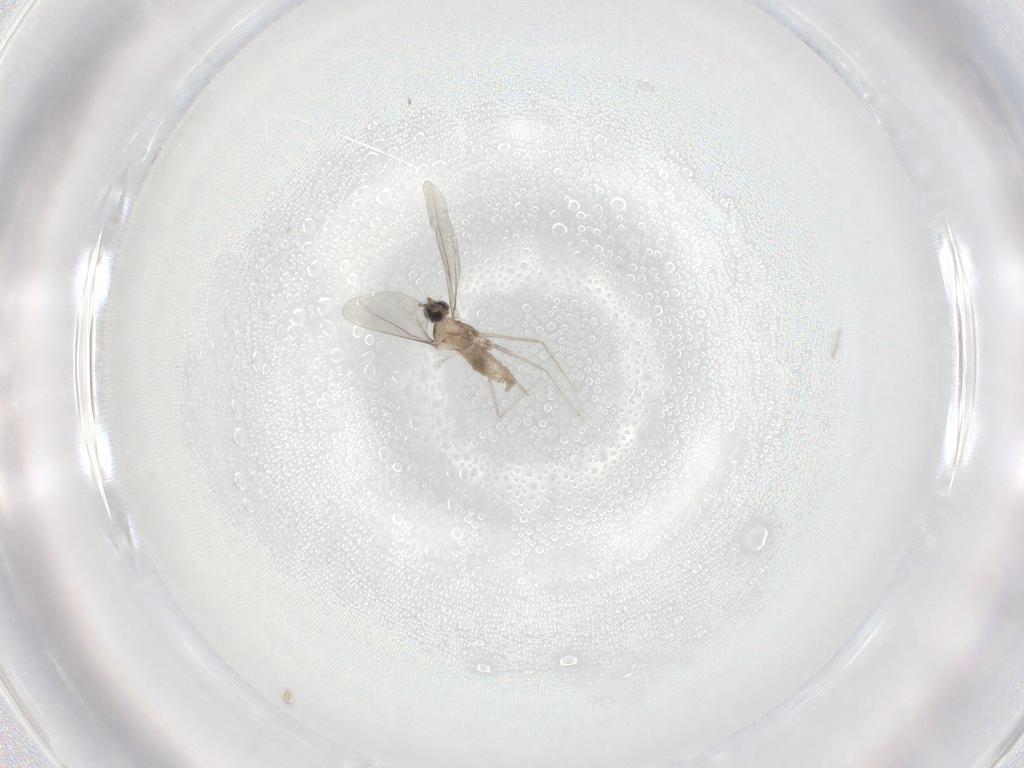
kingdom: Animalia
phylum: Arthropoda
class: Insecta
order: Diptera
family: Cecidomyiidae
